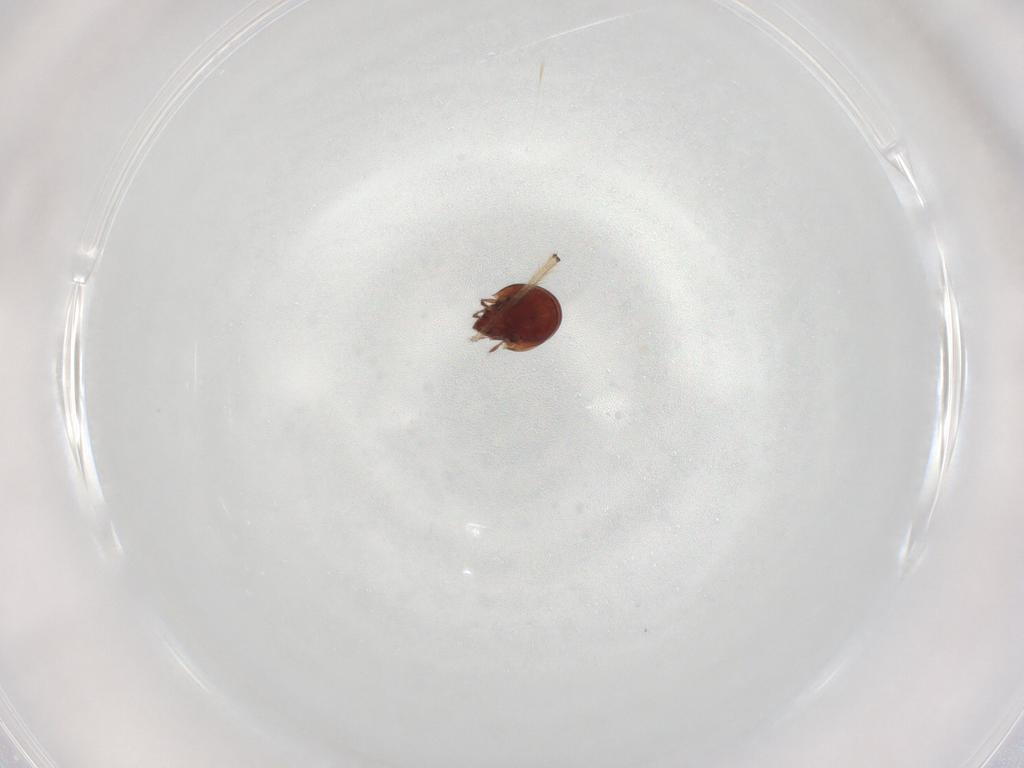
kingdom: Animalia
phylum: Arthropoda
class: Arachnida
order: Sarcoptiformes
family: Ceratozetidae
